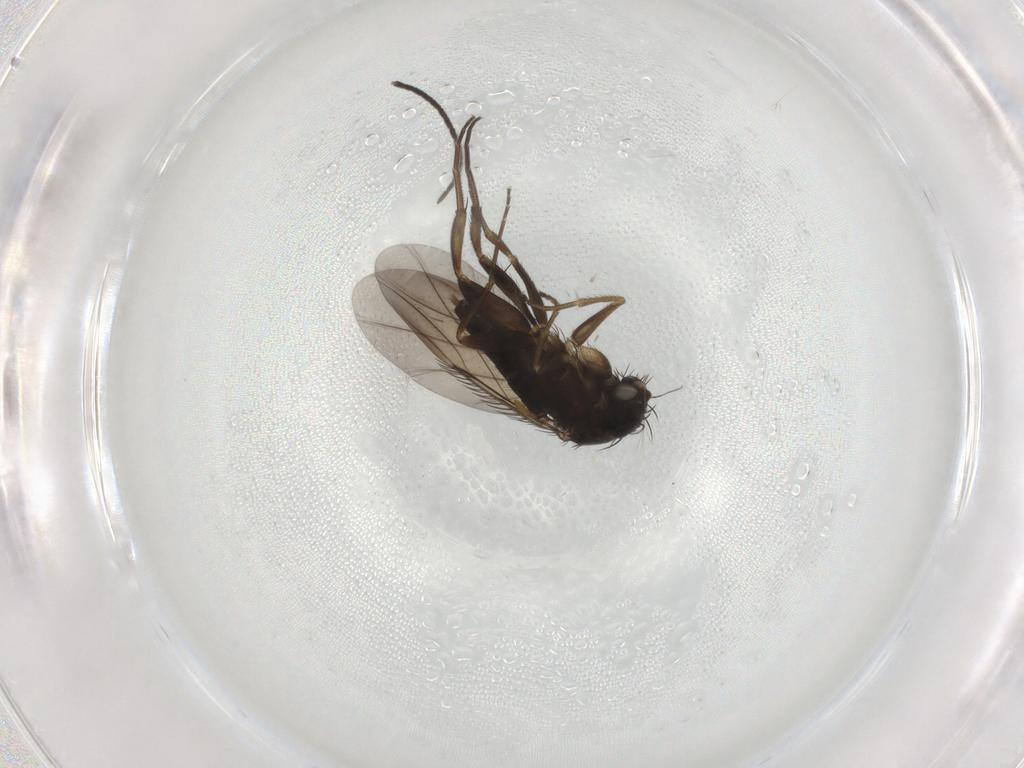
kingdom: Animalia
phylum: Arthropoda
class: Insecta
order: Diptera
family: Phoridae
